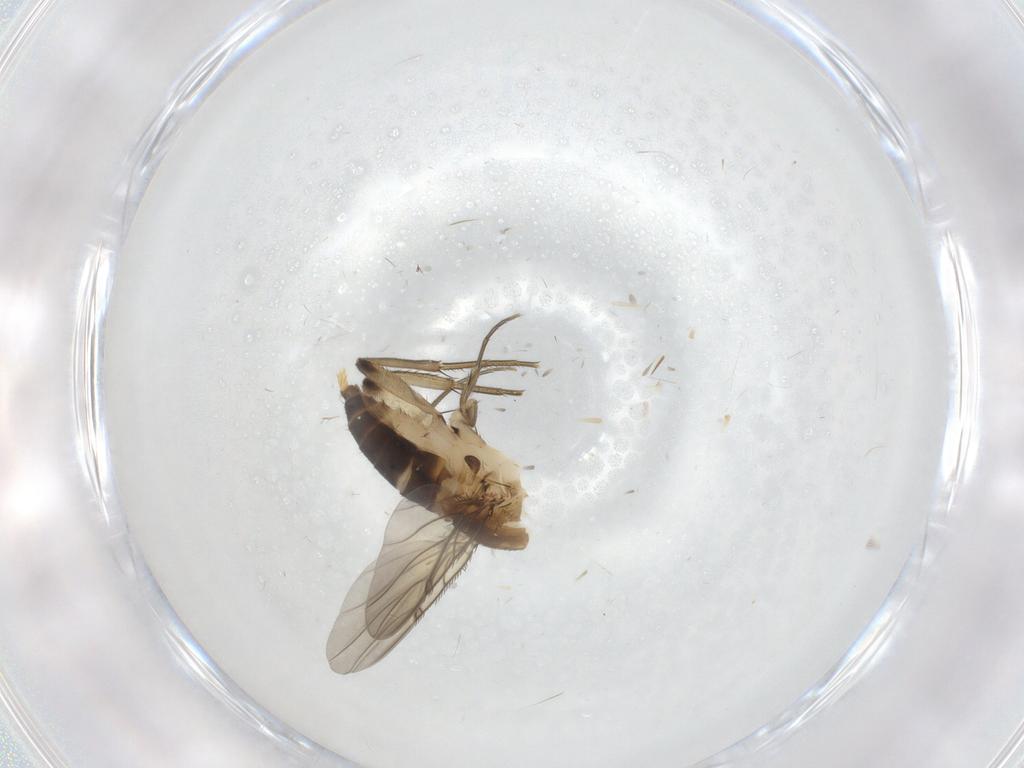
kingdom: Animalia
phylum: Arthropoda
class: Insecta
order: Diptera
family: Phoridae
